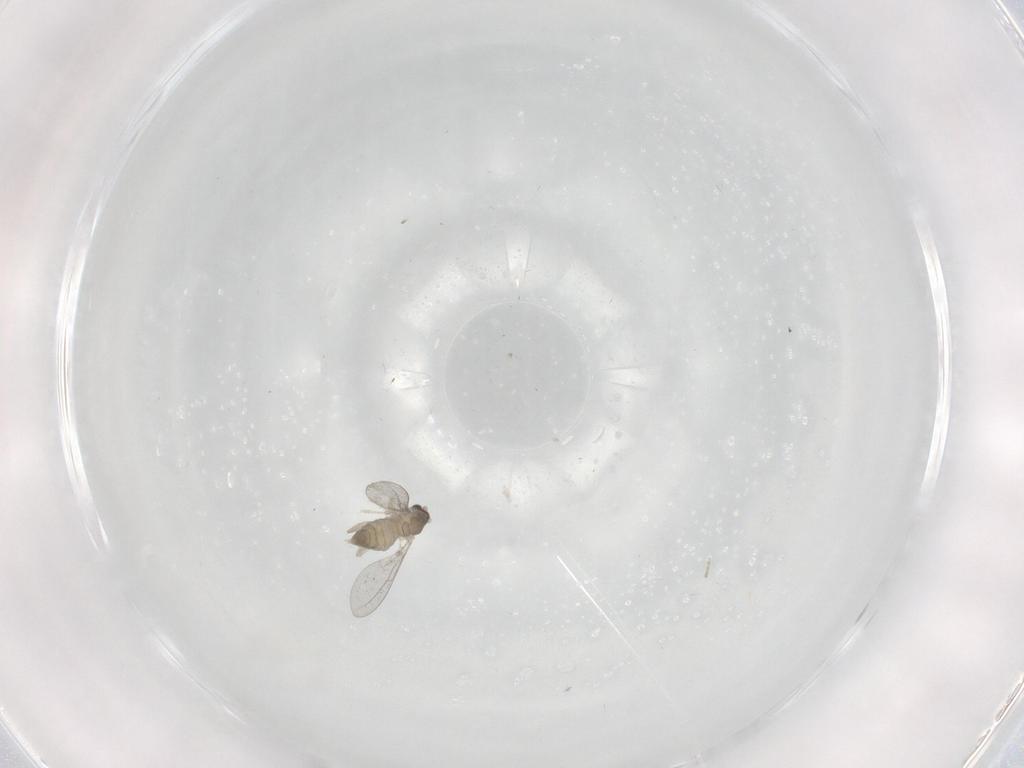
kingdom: Animalia
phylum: Arthropoda
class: Insecta
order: Diptera
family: Cecidomyiidae
